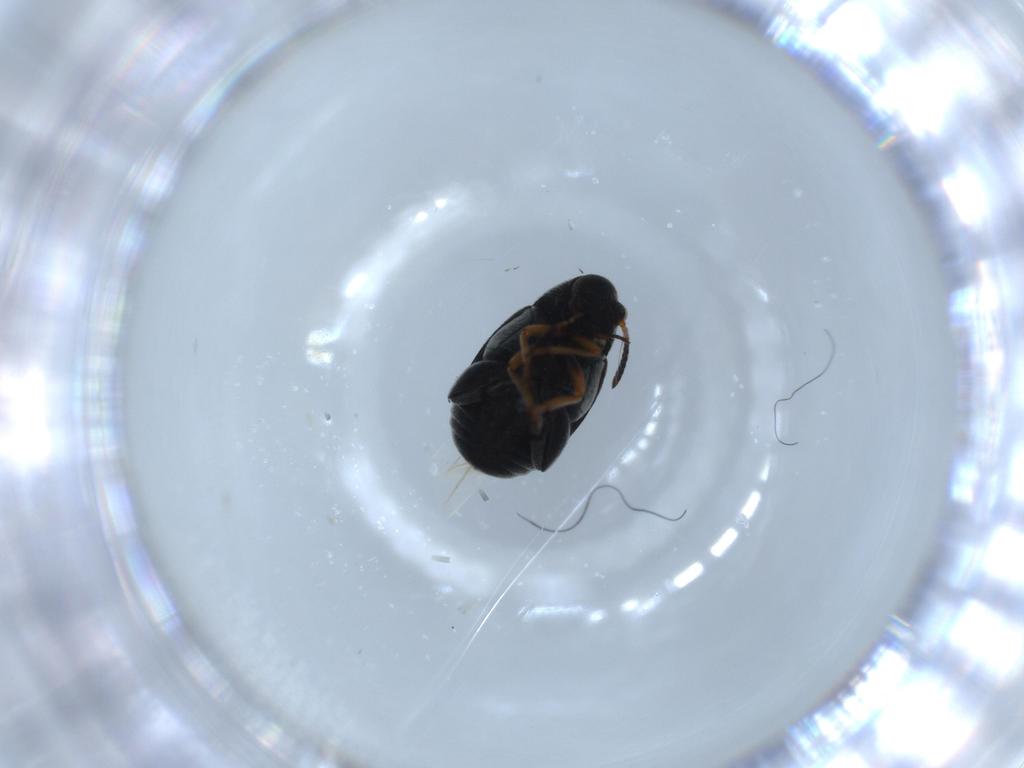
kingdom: Animalia
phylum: Arthropoda
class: Insecta
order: Coleoptera
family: Chrysomelidae
